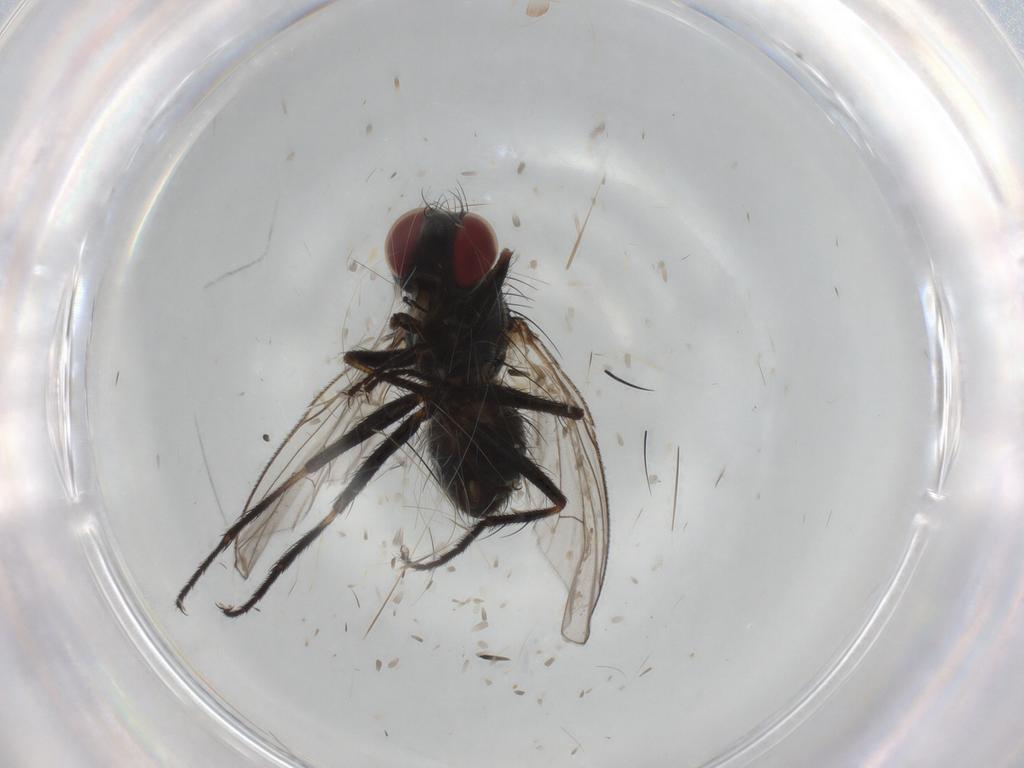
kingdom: Animalia
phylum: Arthropoda
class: Insecta
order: Diptera
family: Muscidae
